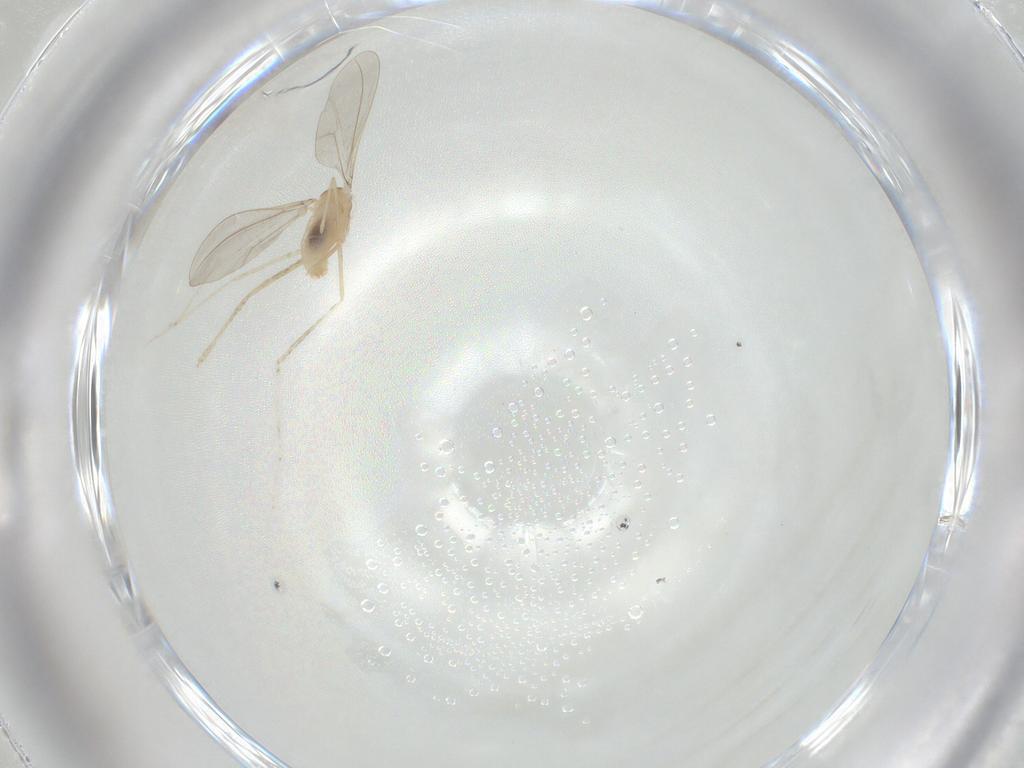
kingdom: Animalia
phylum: Arthropoda
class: Insecta
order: Diptera
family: Cecidomyiidae
